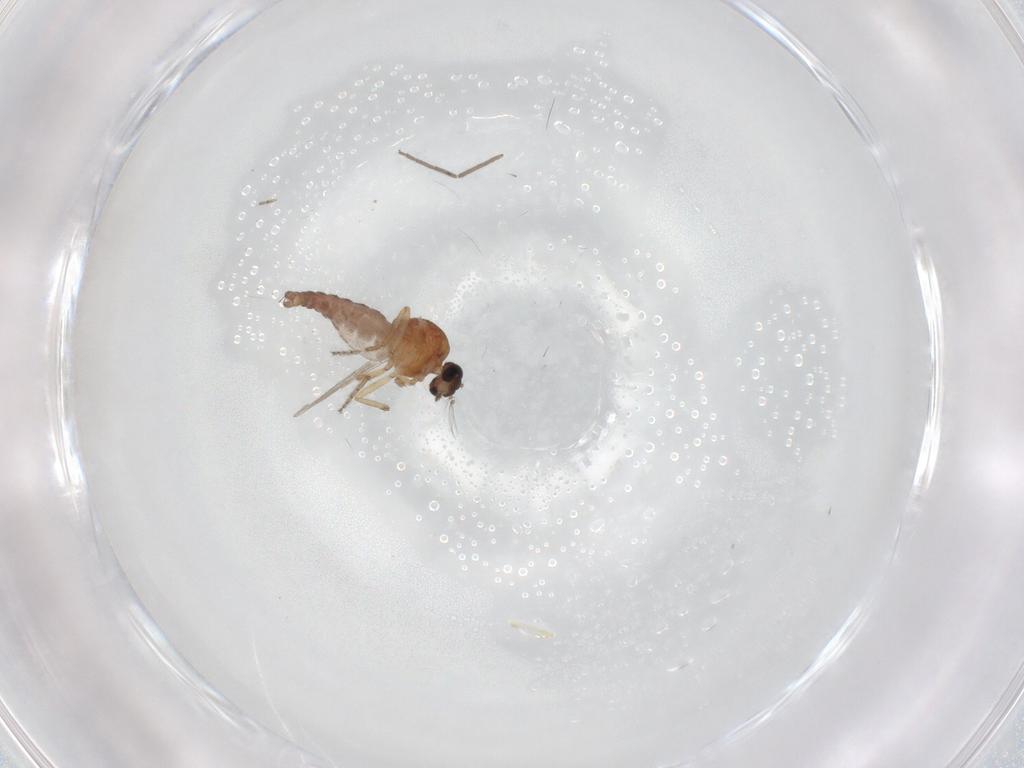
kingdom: Animalia
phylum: Arthropoda
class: Insecta
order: Diptera
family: Ceratopogonidae
